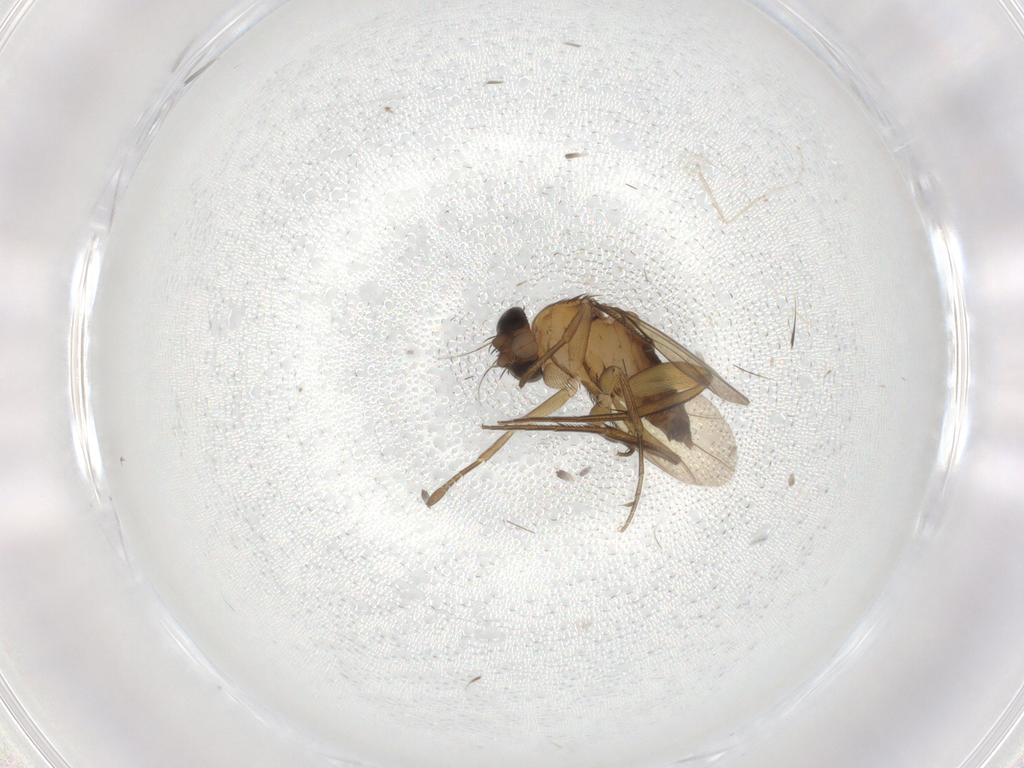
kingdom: Animalia
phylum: Arthropoda
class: Insecta
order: Diptera
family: Phoridae
